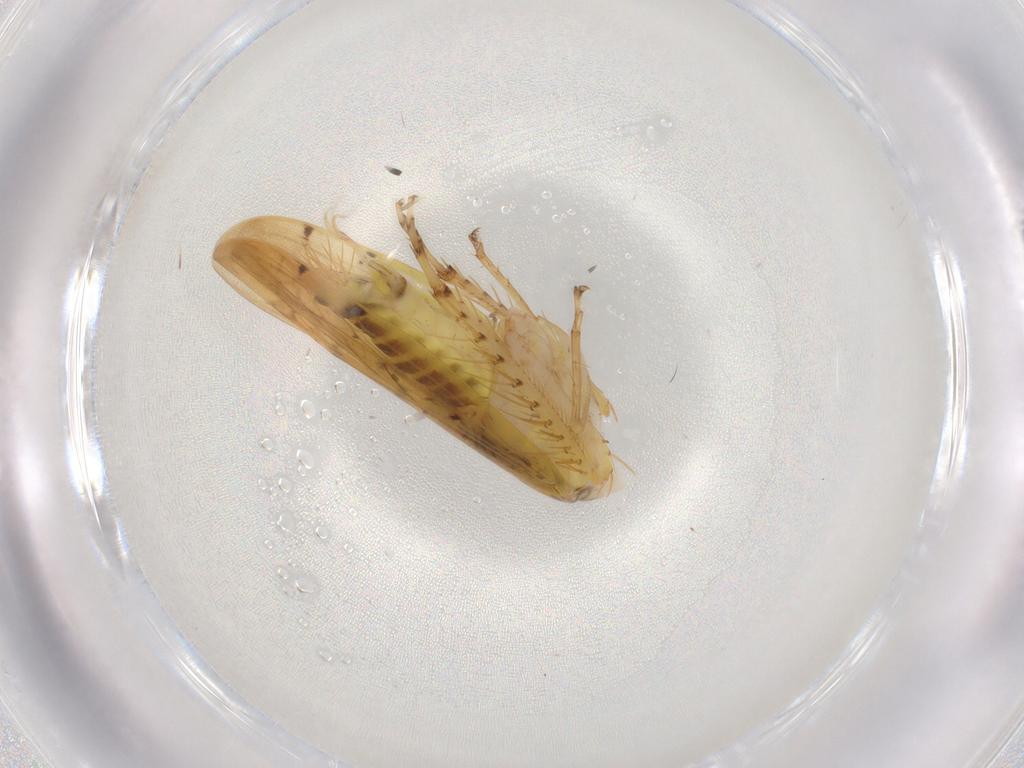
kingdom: Animalia
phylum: Arthropoda
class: Insecta
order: Hemiptera
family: Cicadellidae
